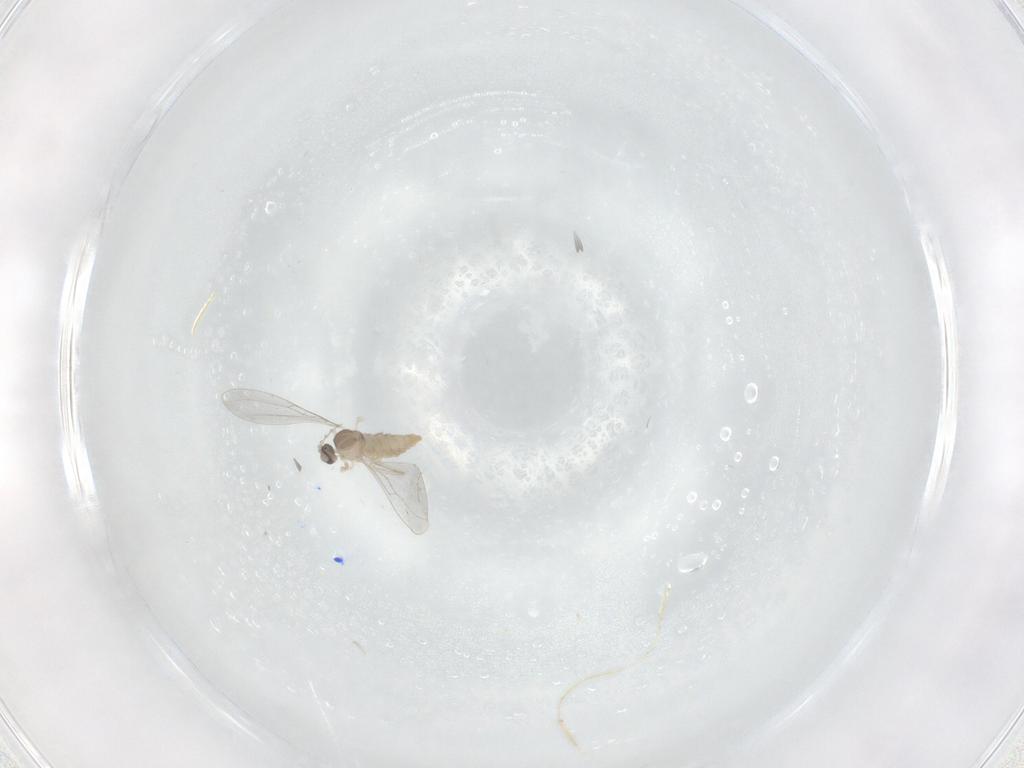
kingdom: Animalia
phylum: Arthropoda
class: Insecta
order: Diptera
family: Cecidomyiidae
